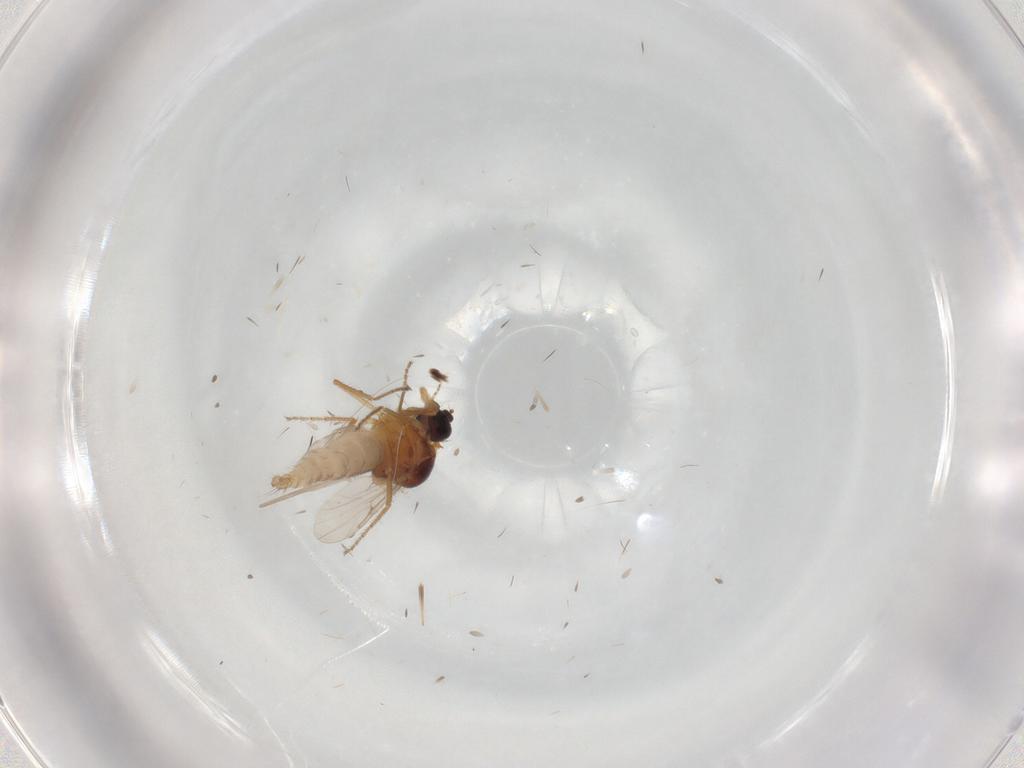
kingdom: Animalia
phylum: Arthropoda
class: Insecta
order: Diptera
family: Ceratopogonidae
